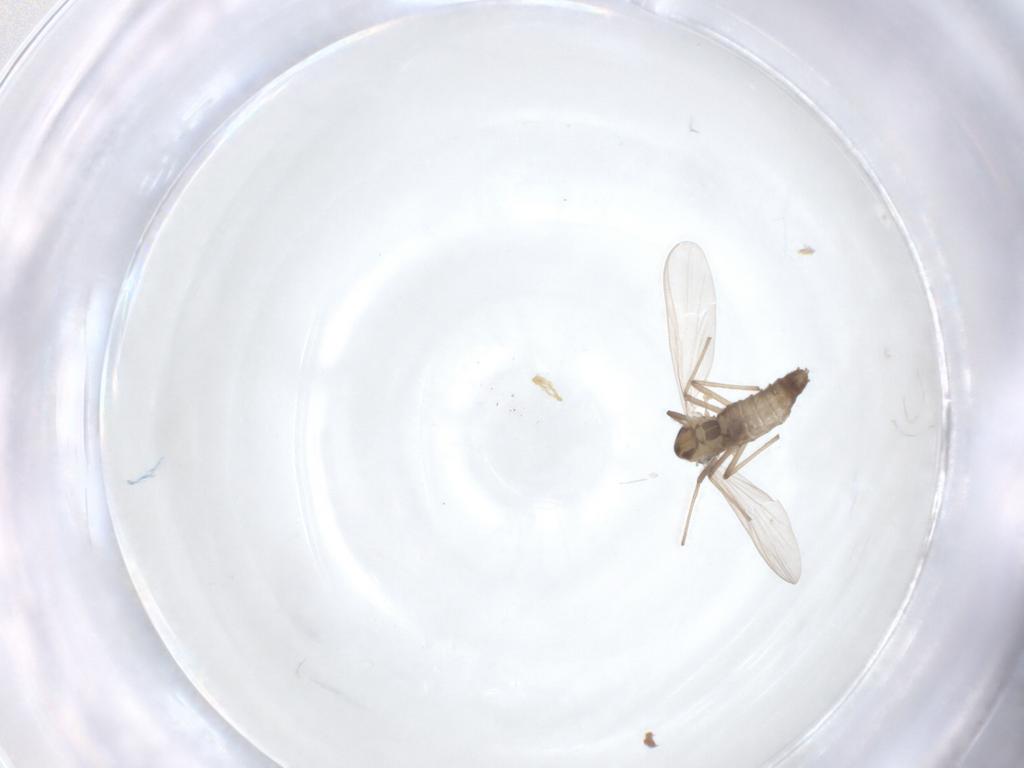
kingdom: Animalia
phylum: Arthropoda
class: Insecta
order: Diptera
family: Chironomidae
